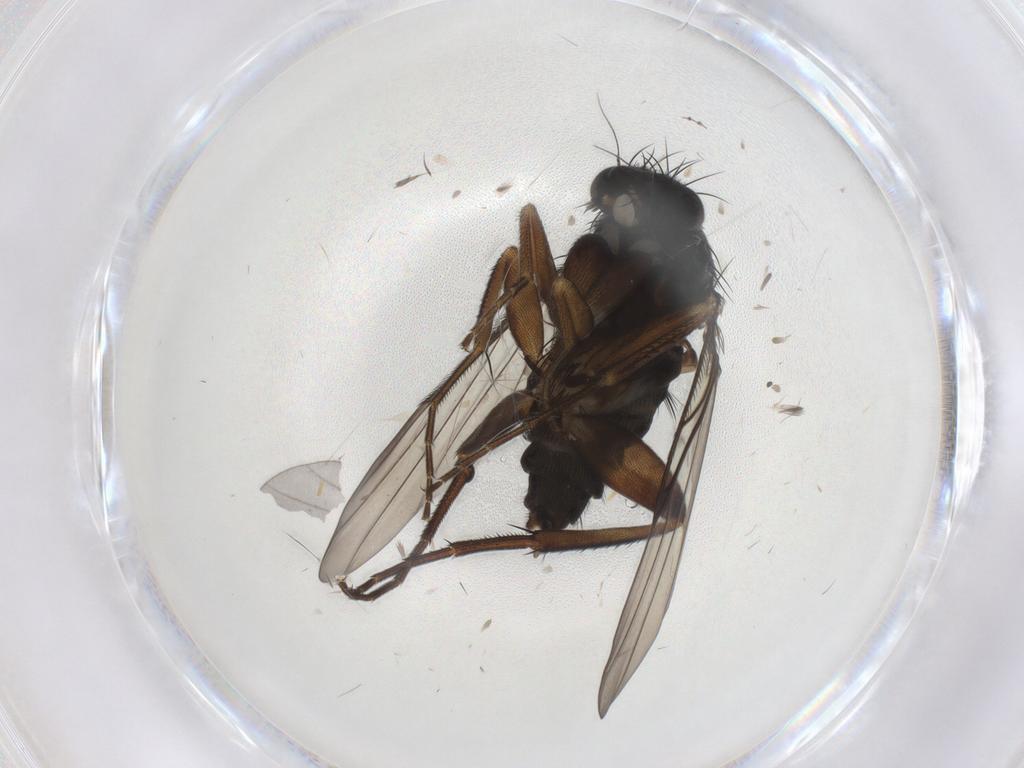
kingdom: Animalia
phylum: Arthropoda
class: Insecta
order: Diptera
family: Phoridae
